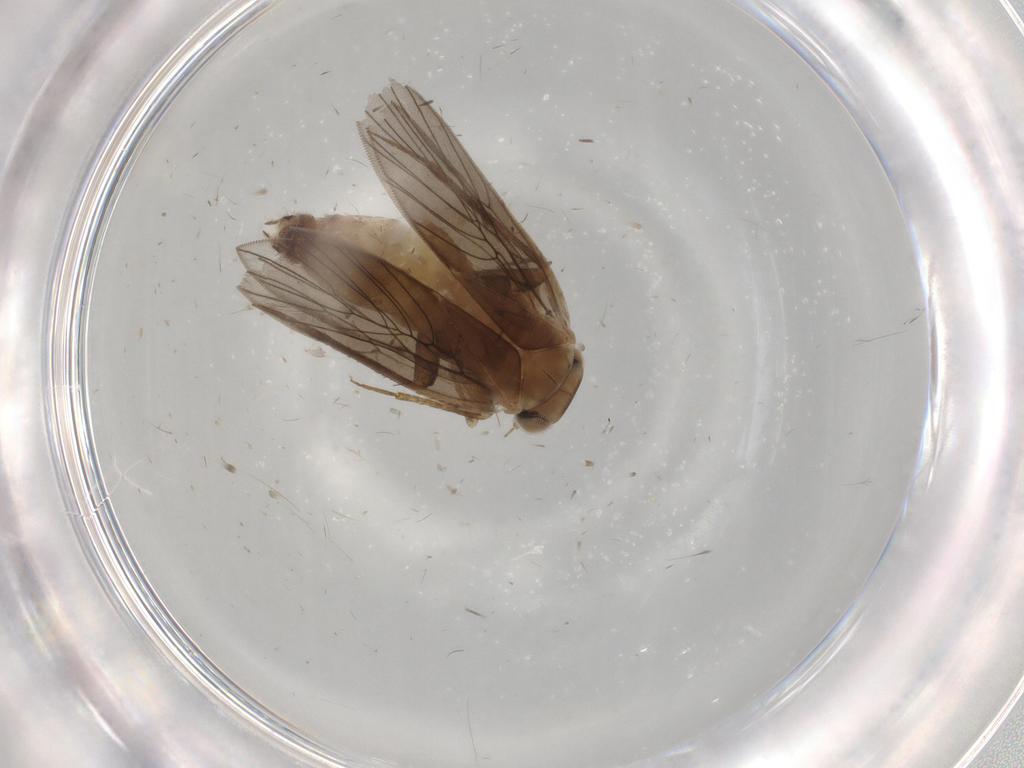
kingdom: Animalia
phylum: Arthropoda
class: Insecta
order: Psocodea
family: Lepidopsocidae
